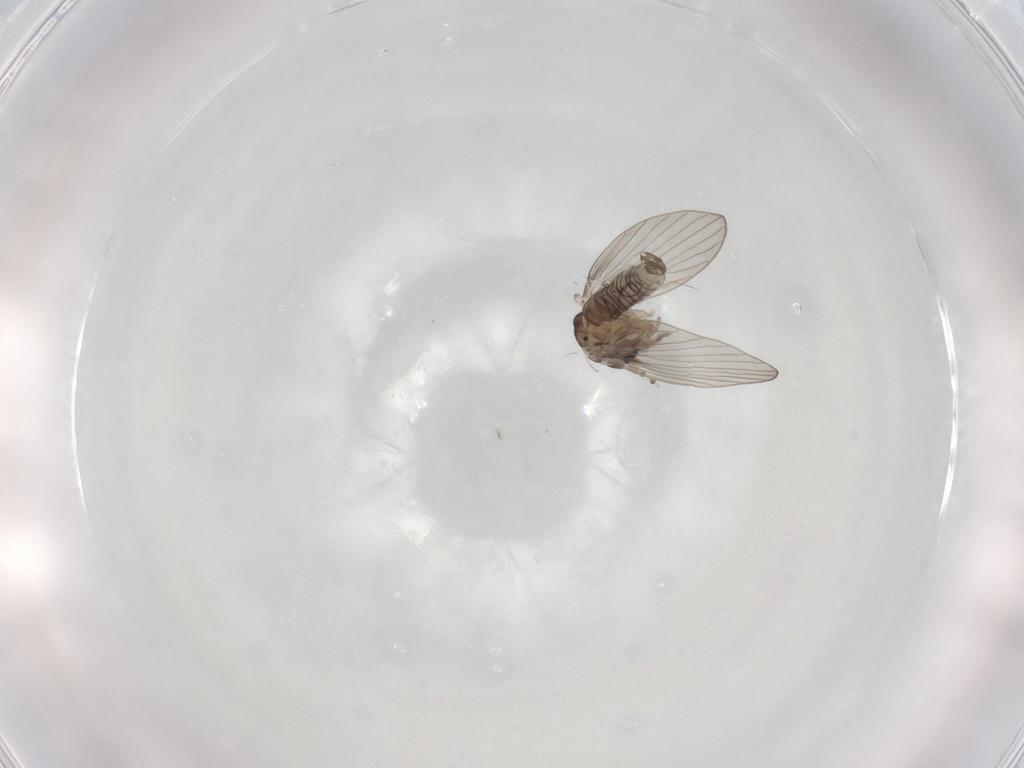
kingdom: Animalia
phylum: Arthropoda
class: Insecta
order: Diptera
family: Psychodidae
